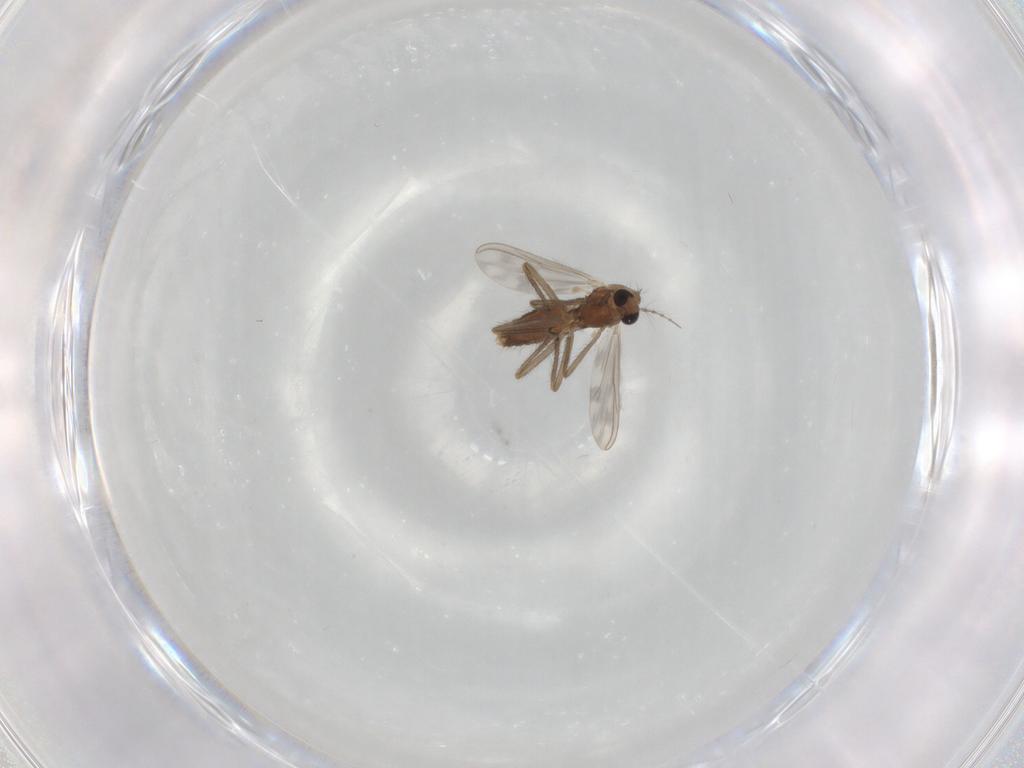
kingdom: Animalia
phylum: Arthropoda
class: Insecta
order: Diptera
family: Chironomidae
